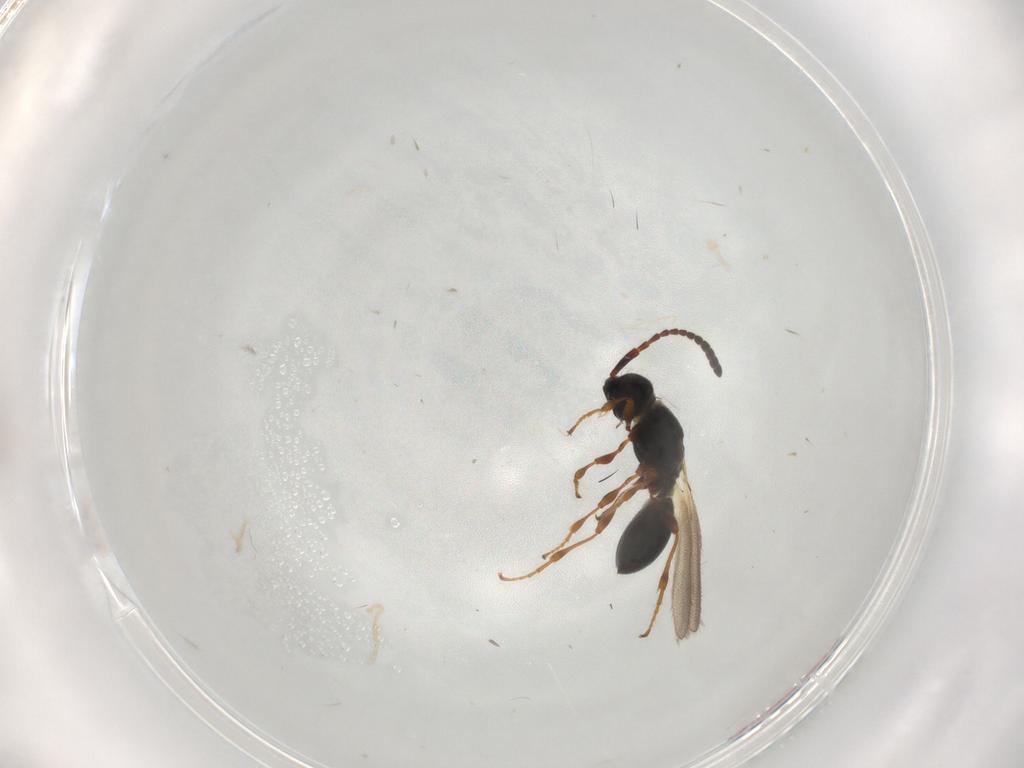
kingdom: Animalia
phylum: Arthropoda
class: Insecta
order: Hymenoptera
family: Diapriidae
